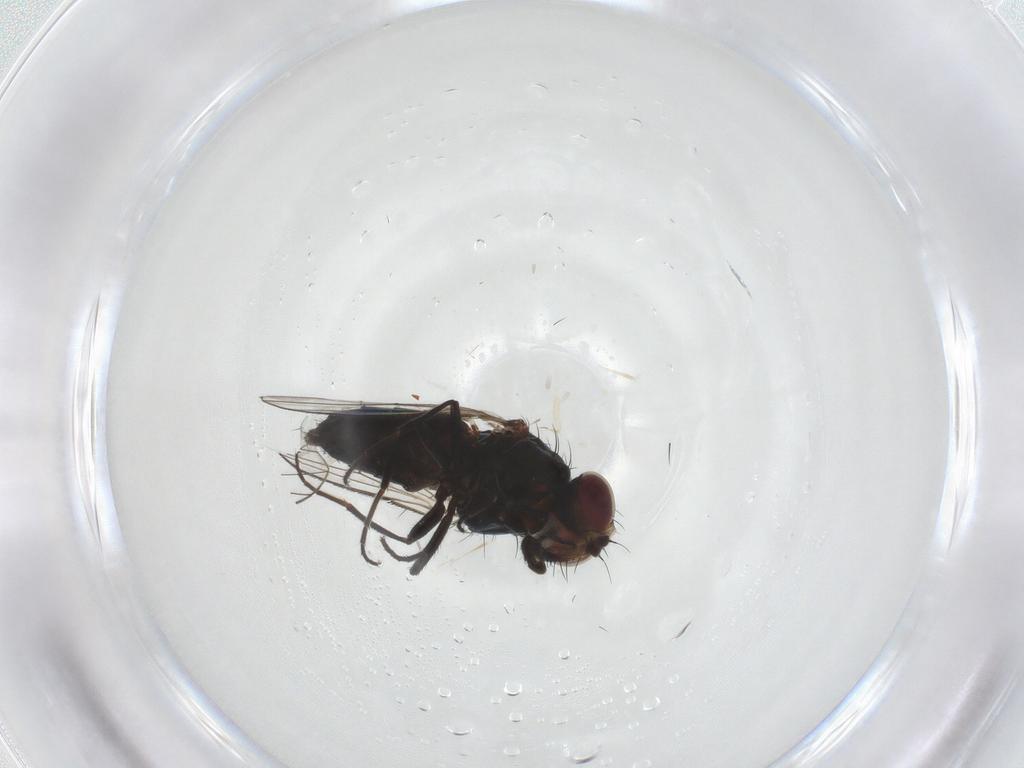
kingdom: Animalia
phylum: Arthropoda
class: Insecta
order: Diptera
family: Carnidae
